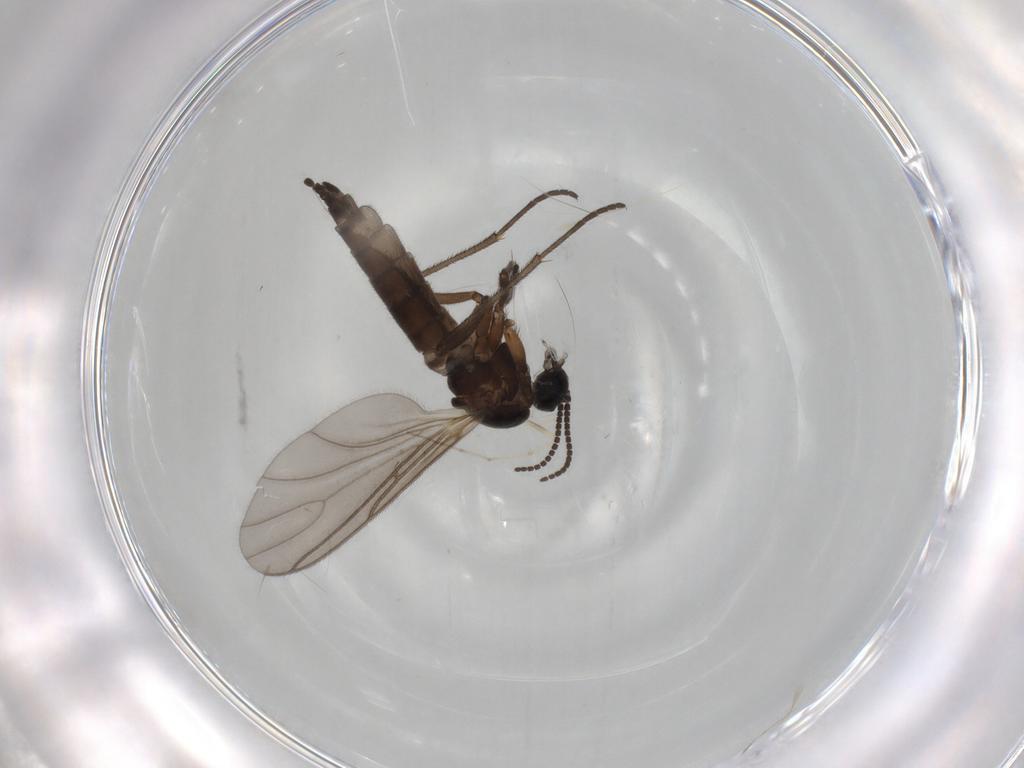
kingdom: Animalia
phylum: Arthropoda
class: Insecta
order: Diptera
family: Sciaridae
